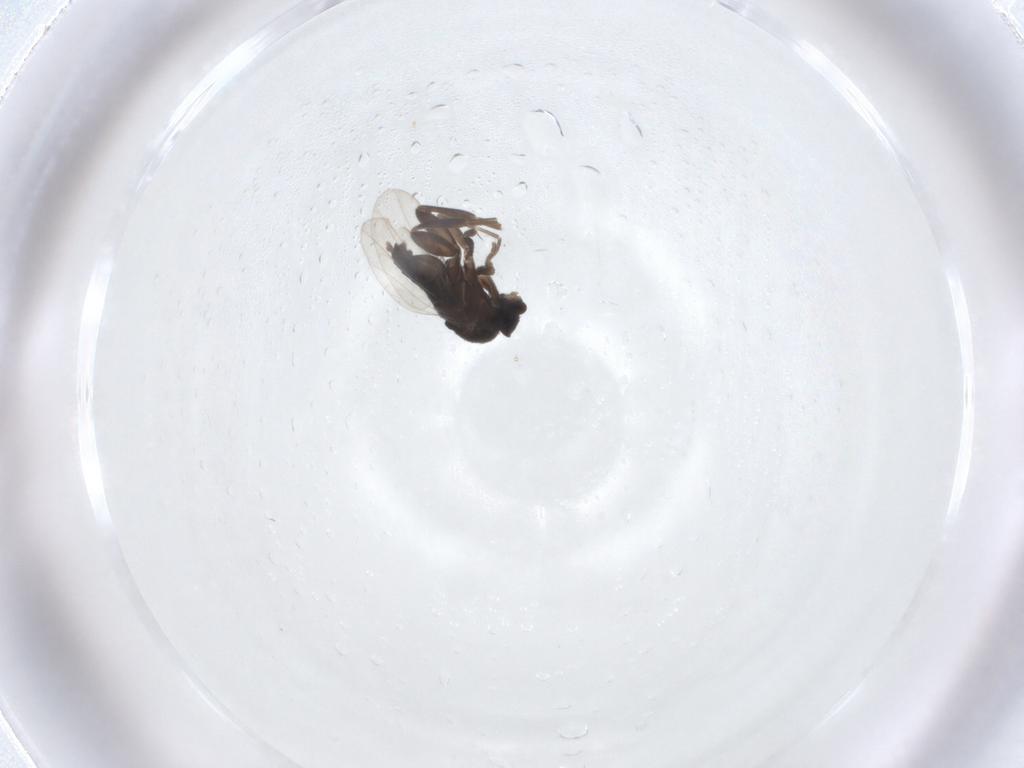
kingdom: Animalia
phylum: Arthropoda
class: Insecta
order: Diptera
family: Phoridae
